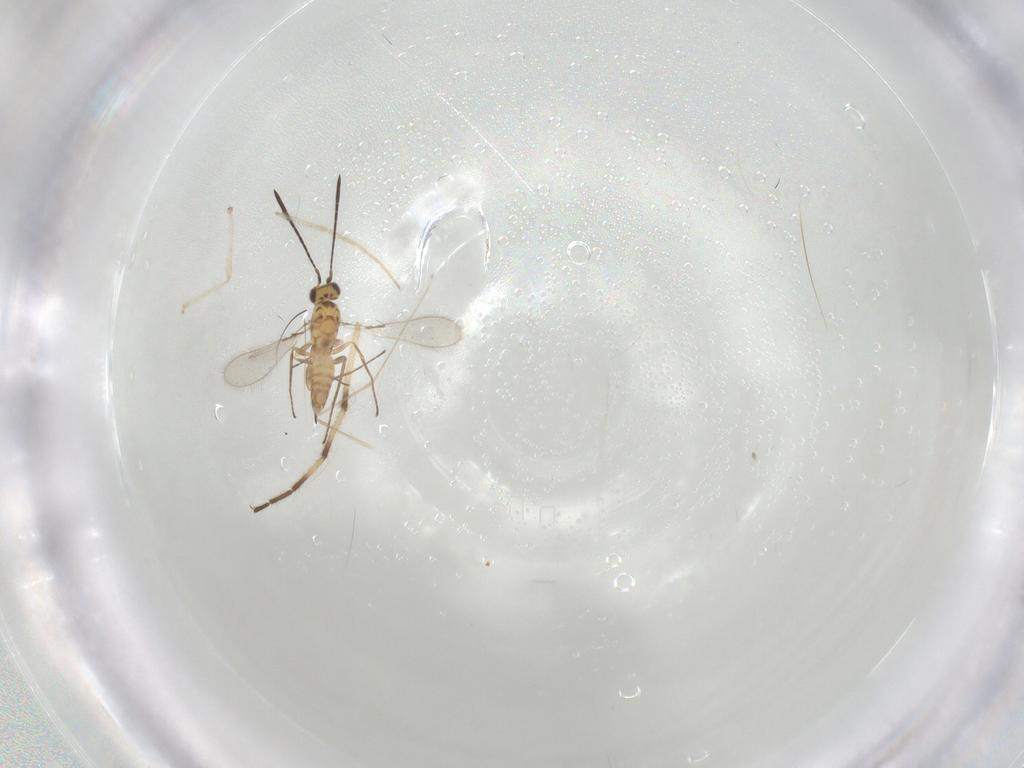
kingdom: Animalia
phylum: Arthropoda
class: Insecta
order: Hymenoptera
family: Mymaridae
